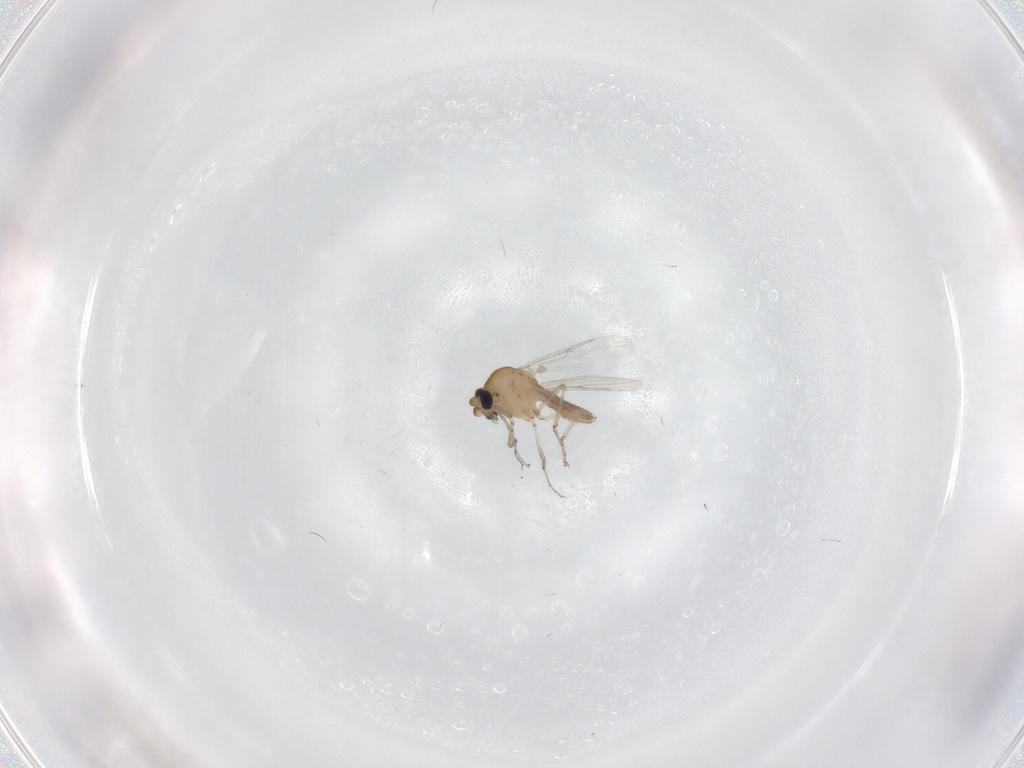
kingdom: Animalia
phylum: Arthropoda
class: Insecta
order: Diptera
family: Ceratopogonidae
